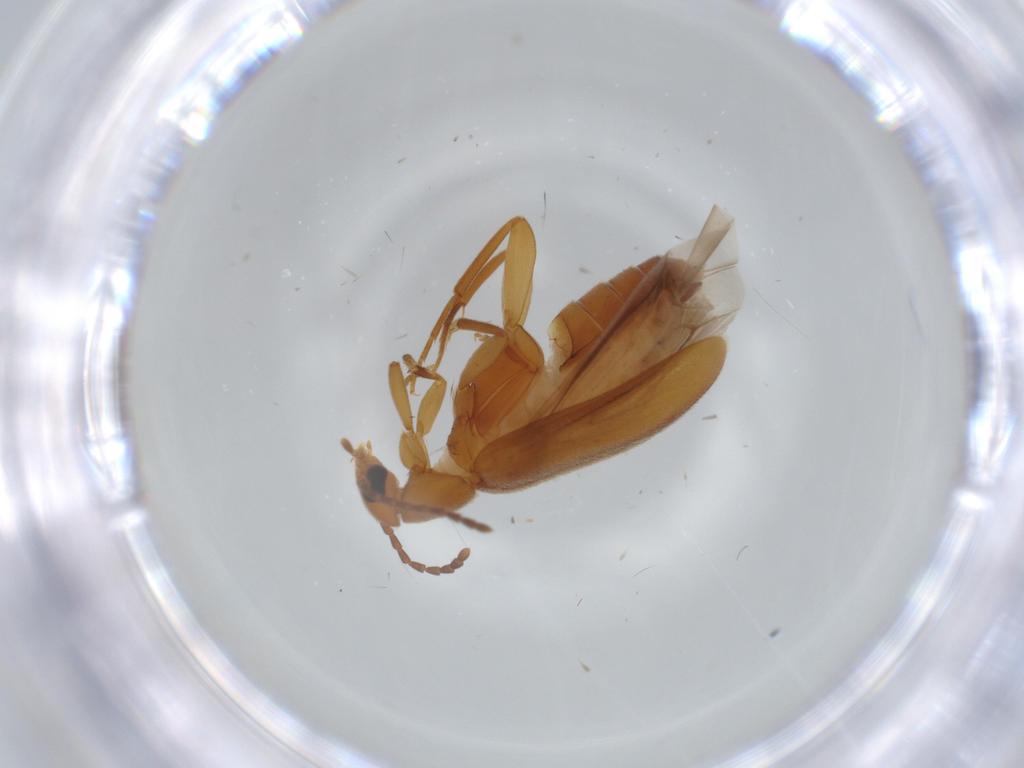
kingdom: Animalia
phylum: Arthropoda
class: Insecta
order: Coleoptera
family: Scraptiidae
